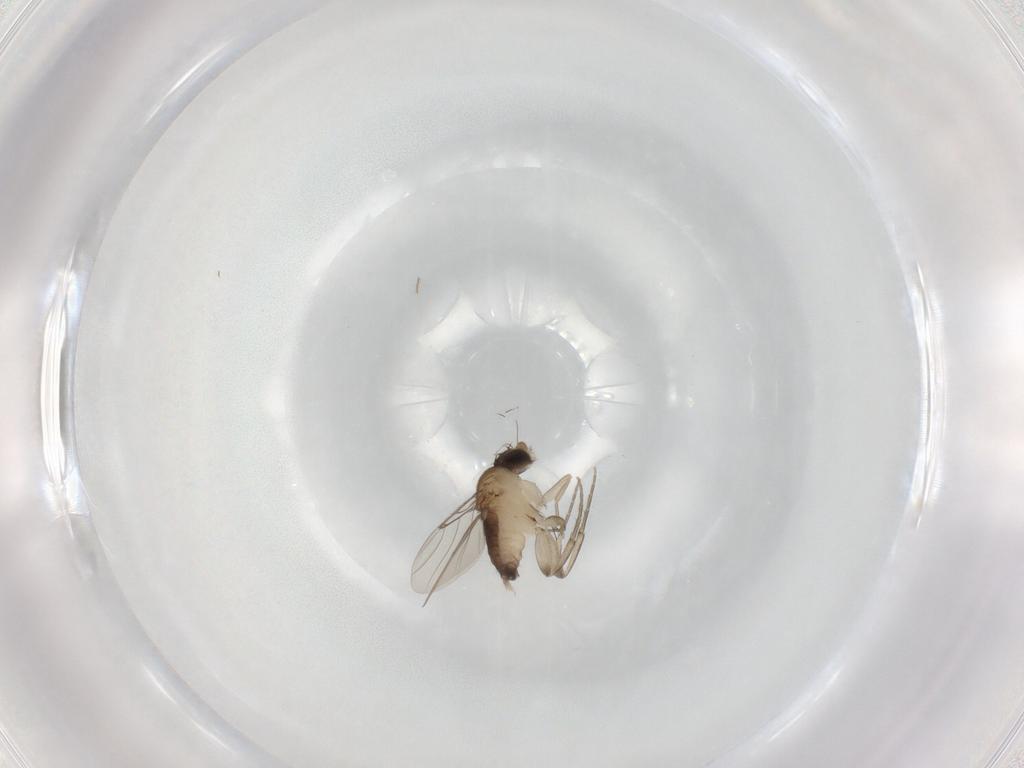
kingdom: Animalia
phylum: Arthropoda
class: Insecta
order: Diptera
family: Phoridae
